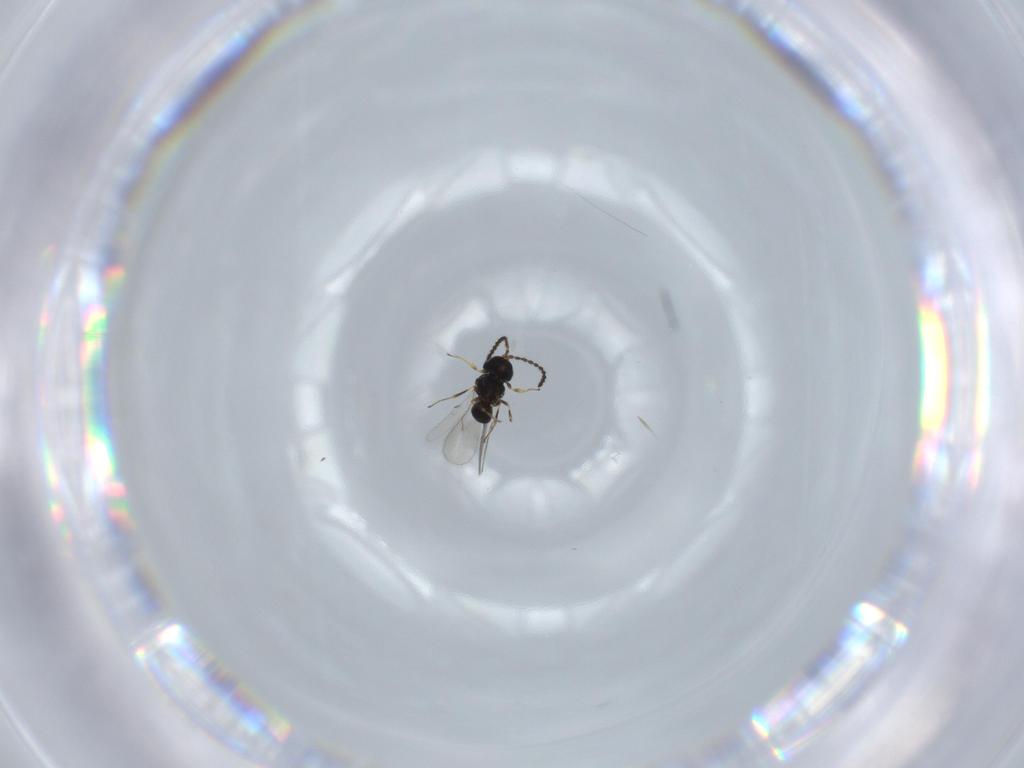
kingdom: Animalia
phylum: Arthropoda
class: Insecta
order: Hymenoptera
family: Scelionidae
